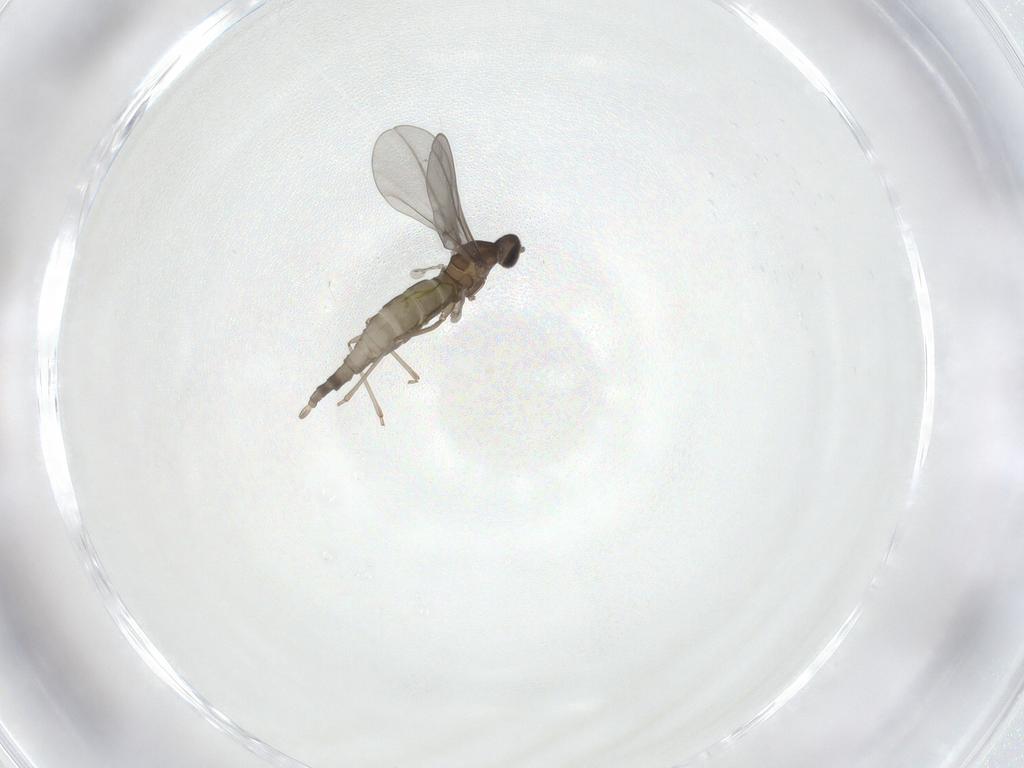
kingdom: Animalia
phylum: Arthropoda
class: Insecta
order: Diptera
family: Cecidomyiidae
